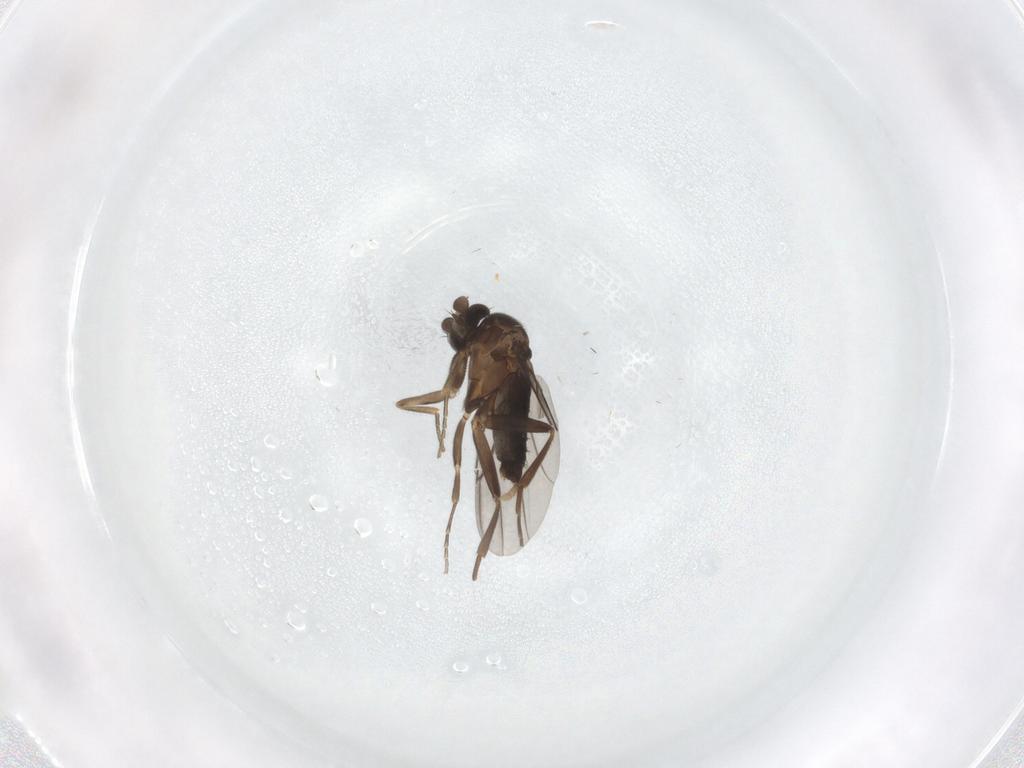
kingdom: Animalia
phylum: Arthropoda
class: Insecta
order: Diptera
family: Phoridae
